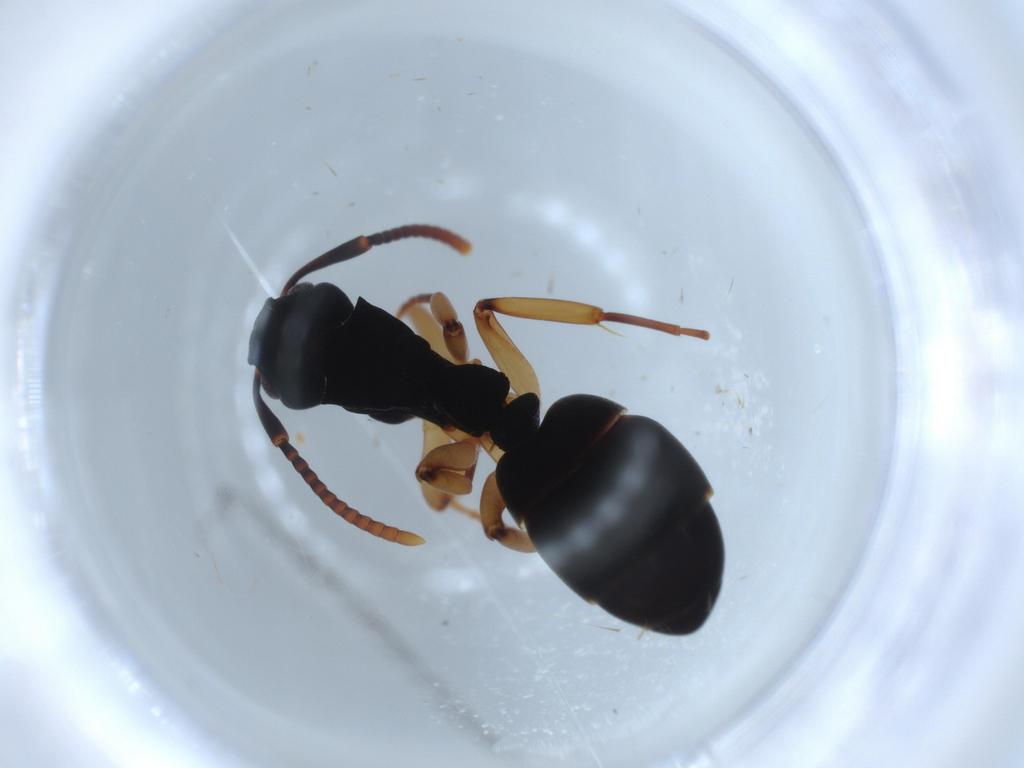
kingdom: Animalia
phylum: Arthropoda
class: Insecta
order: Hymenoptera
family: Formicidae
